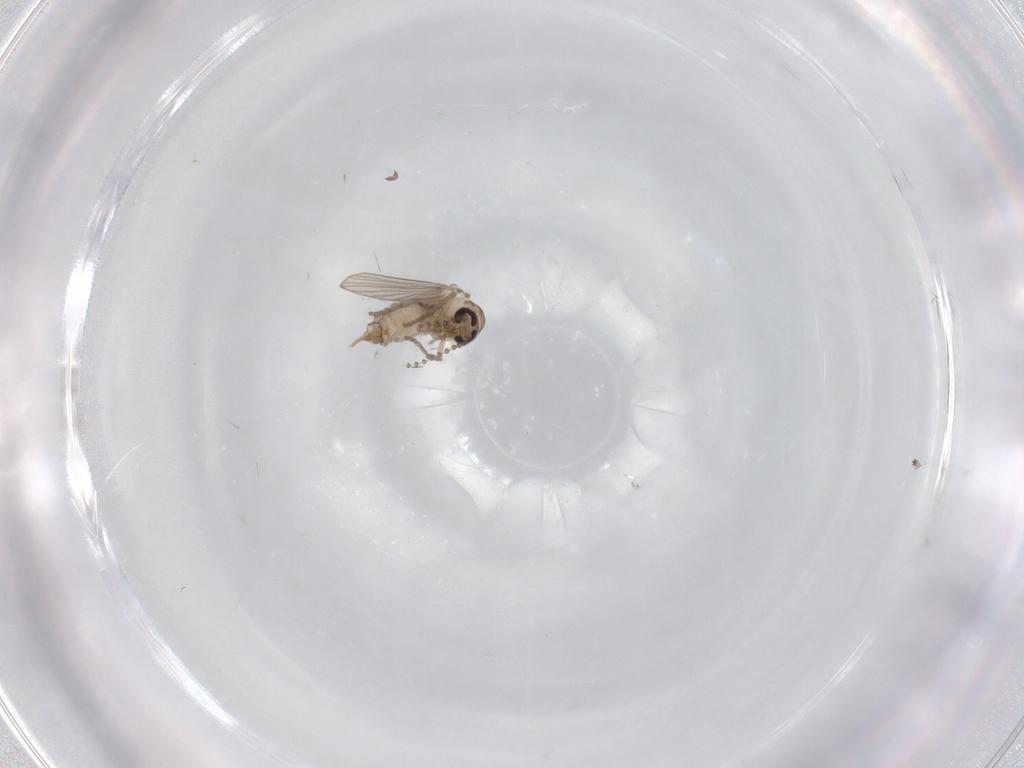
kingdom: Animalia
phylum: Arthropoda
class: Insecta
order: Diptera
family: Psychodidae
